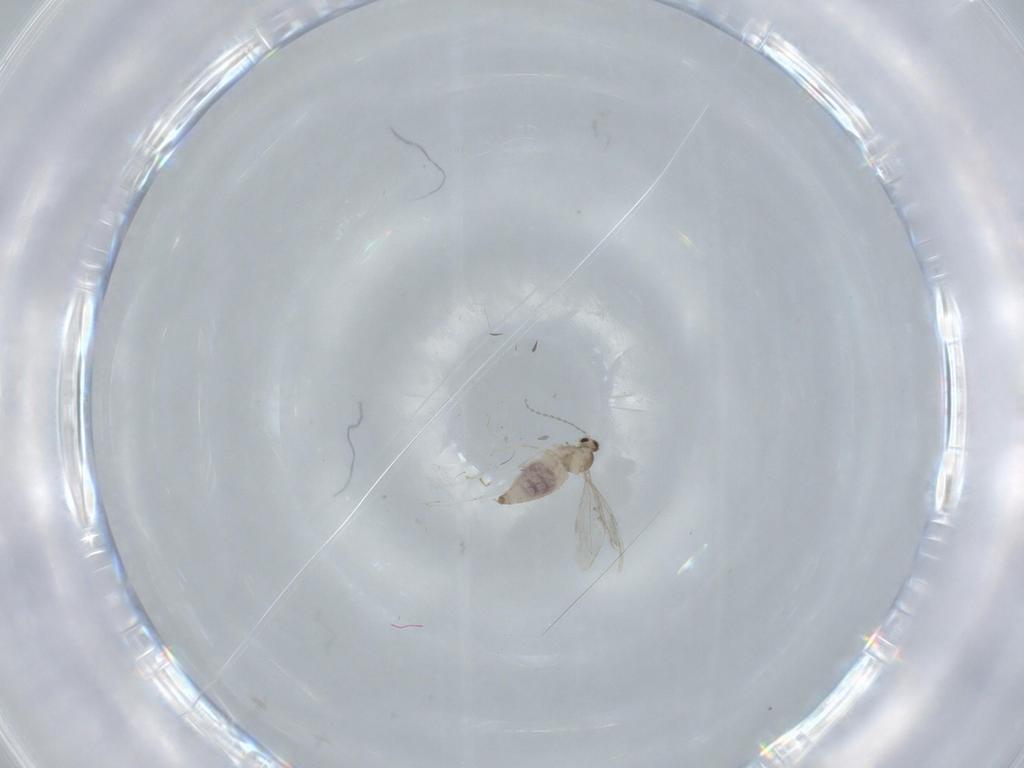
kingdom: Animalia
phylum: Arthropoda
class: Insecta
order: Diptera
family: Cecidomyiidae
